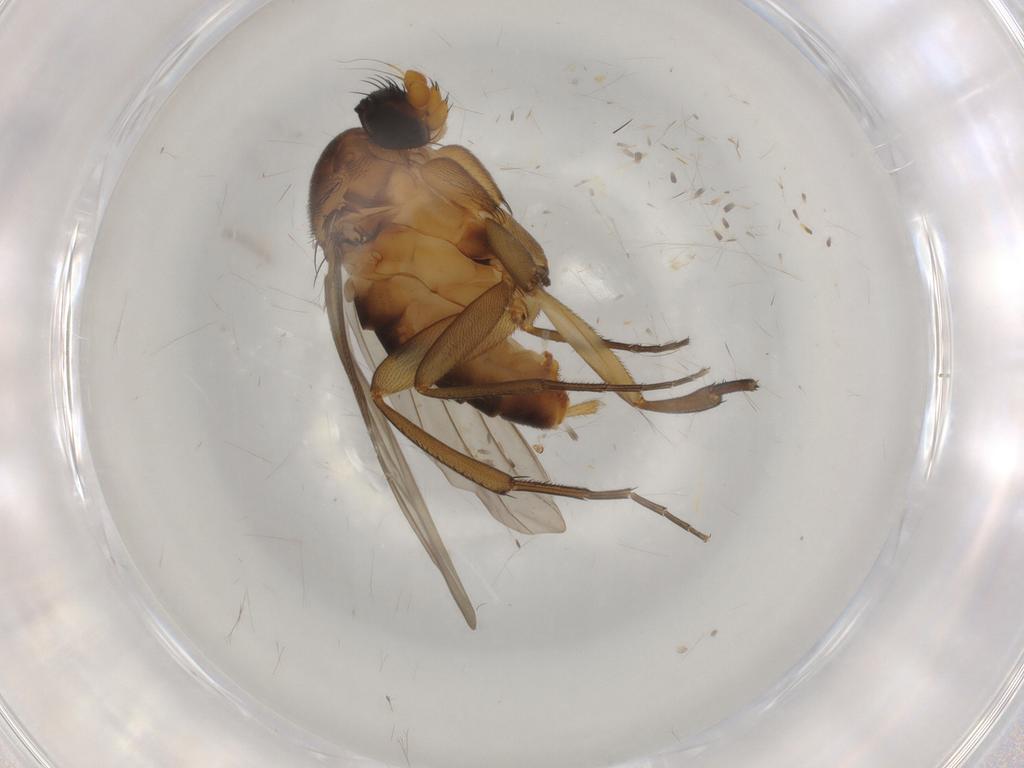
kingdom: Animalia
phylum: Arthropoda
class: Insecta
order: Diptera
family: Phoridae
